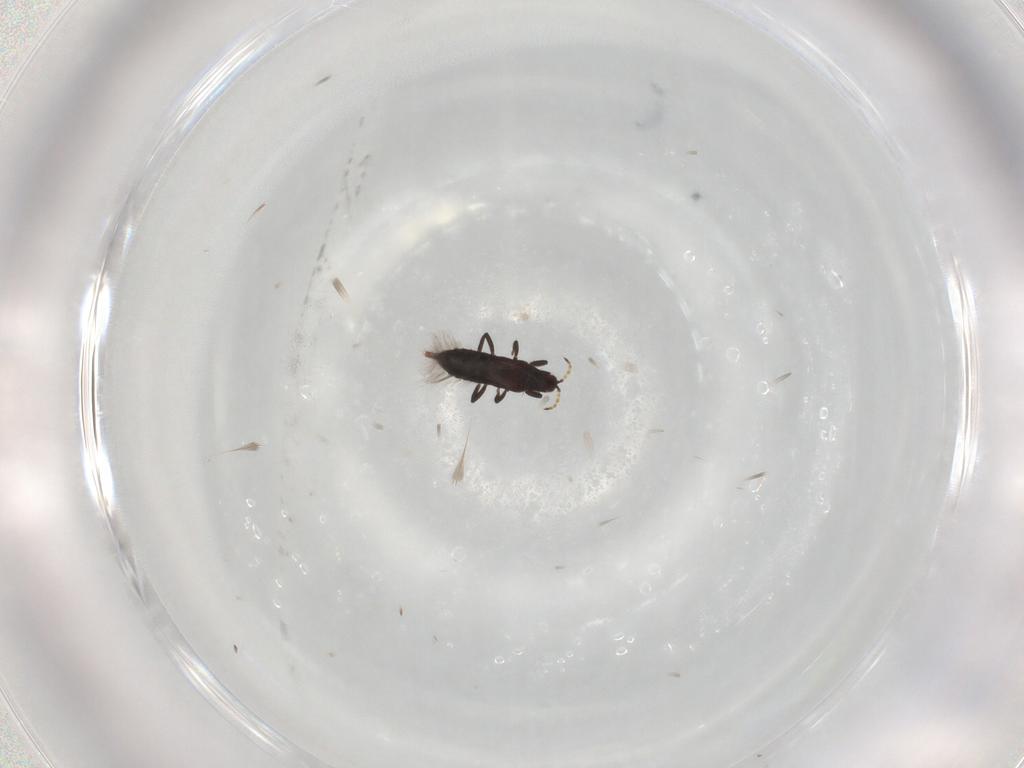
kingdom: Animalia
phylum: Arthropoda
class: Insecta
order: Thysanoptera
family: Phlaeothripidae
